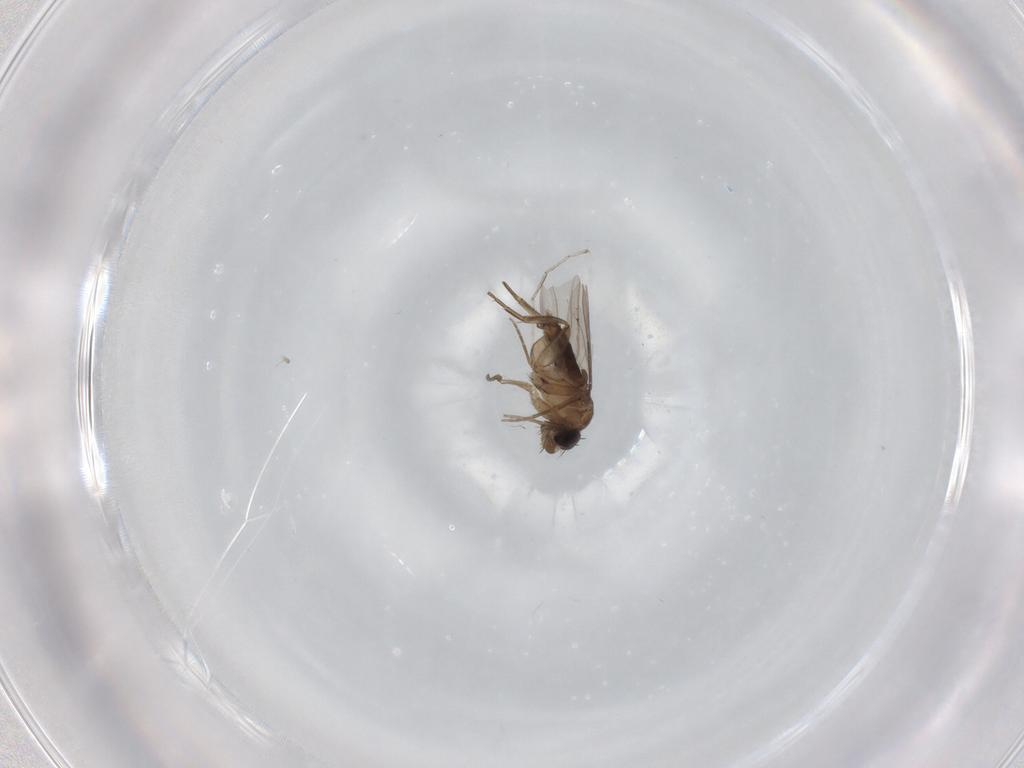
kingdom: Animalia
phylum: Arthropoda
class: Insecta
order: Diptera
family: Phoridae
